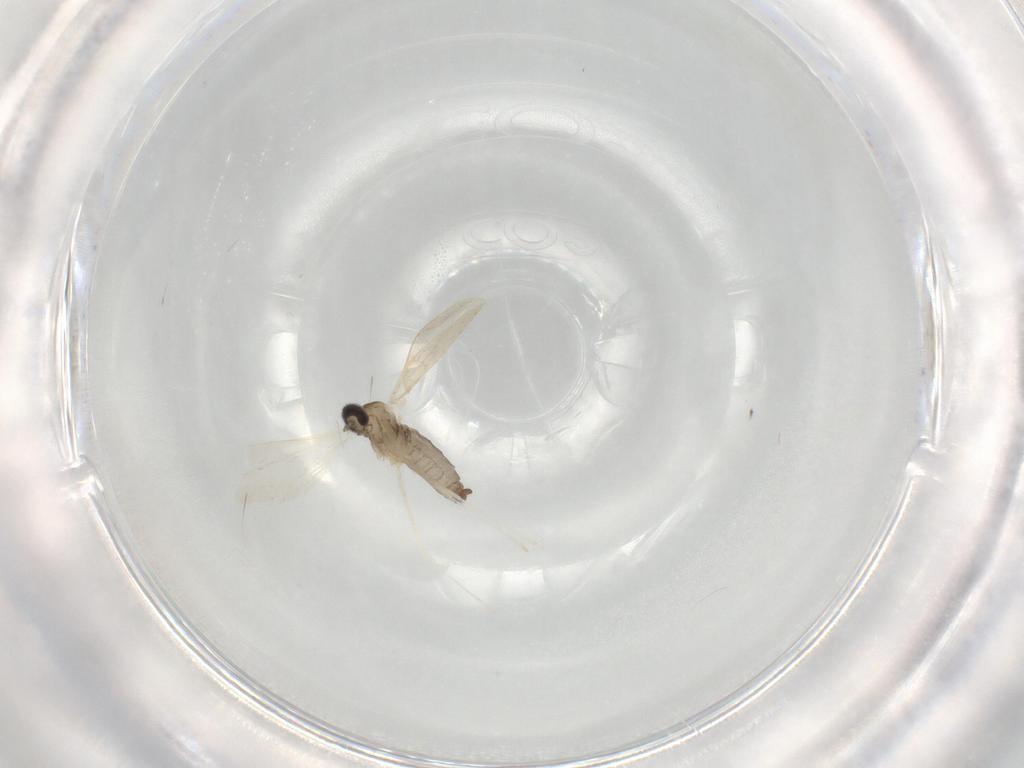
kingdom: Animalia
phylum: Arthropoda
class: Insecta
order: Diptera
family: Cecidomyiidae
